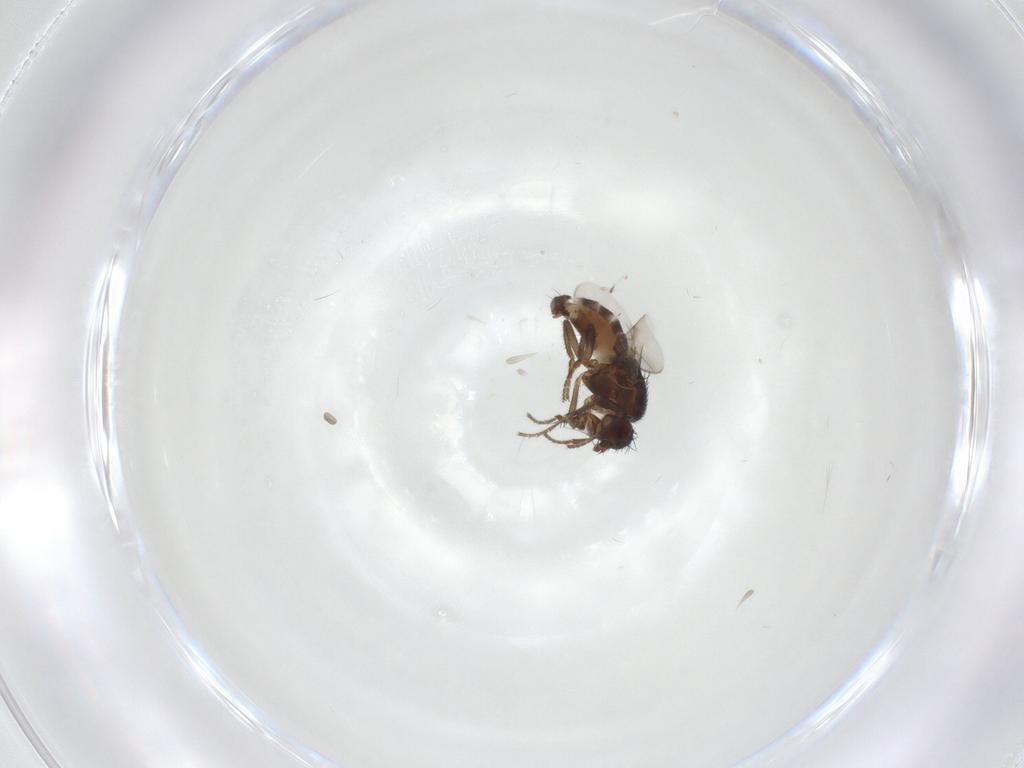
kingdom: Animalia
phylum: Arthropoda
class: Insecta
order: Diptera
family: Sphaeroceridae
